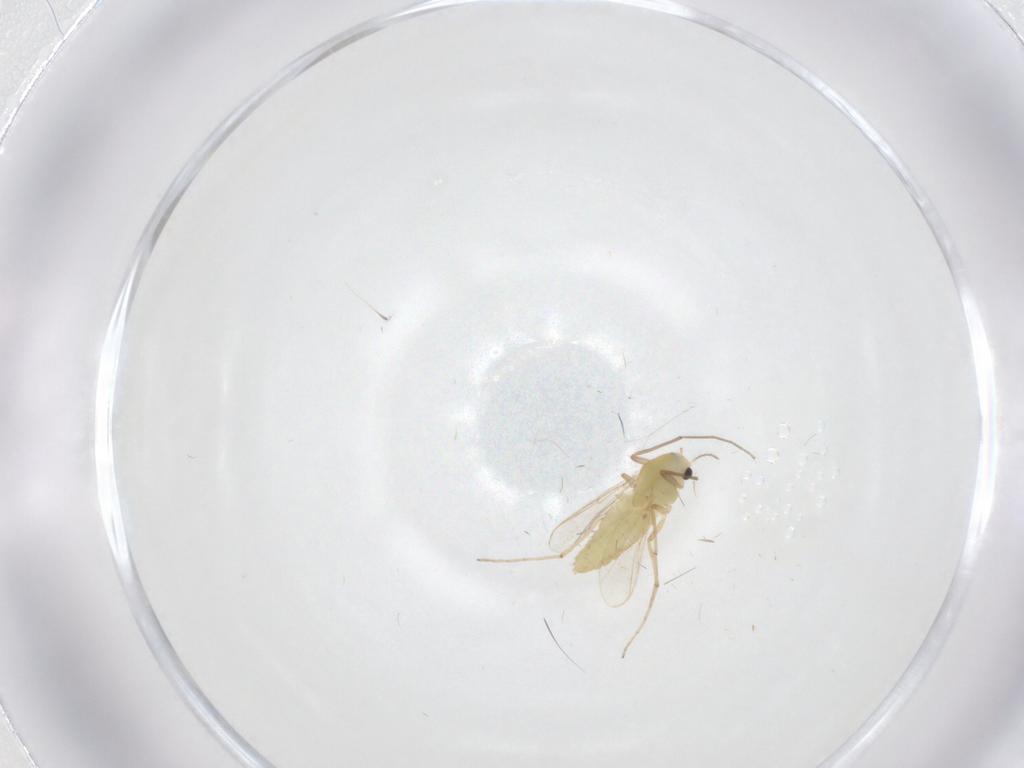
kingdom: Animalia
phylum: Arthropoda
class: Insecta
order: Diptera
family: Chironomidae
